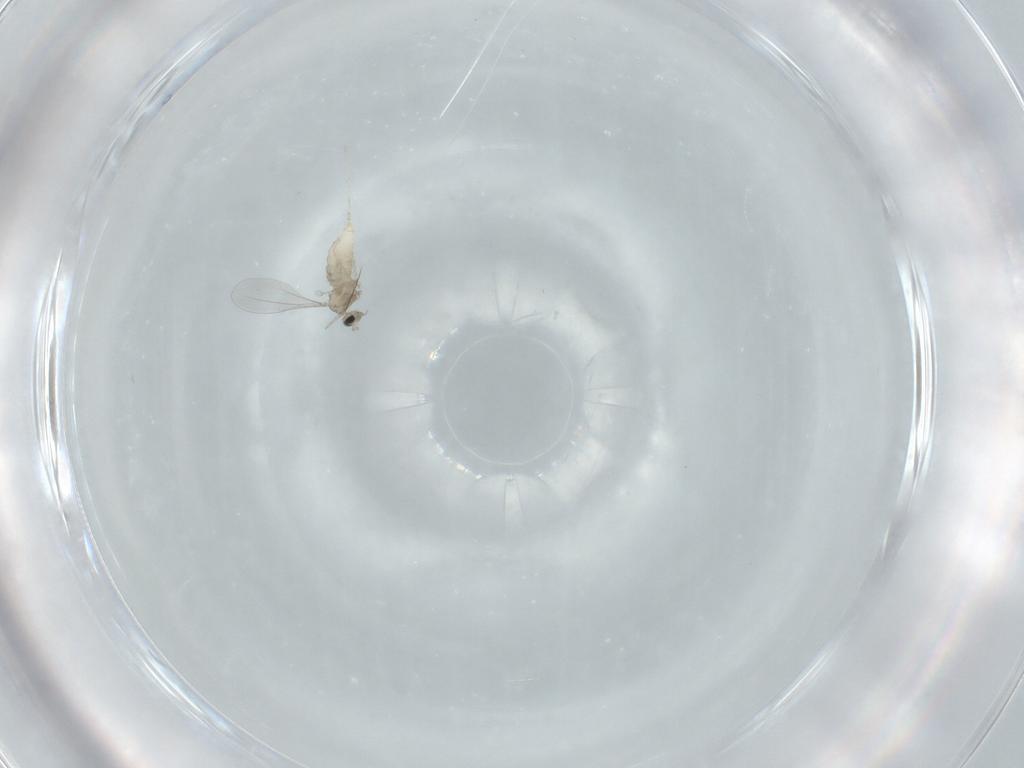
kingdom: Animalia
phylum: Arthropoda
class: Insecta
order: Diptera
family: Cecidomyiidae
